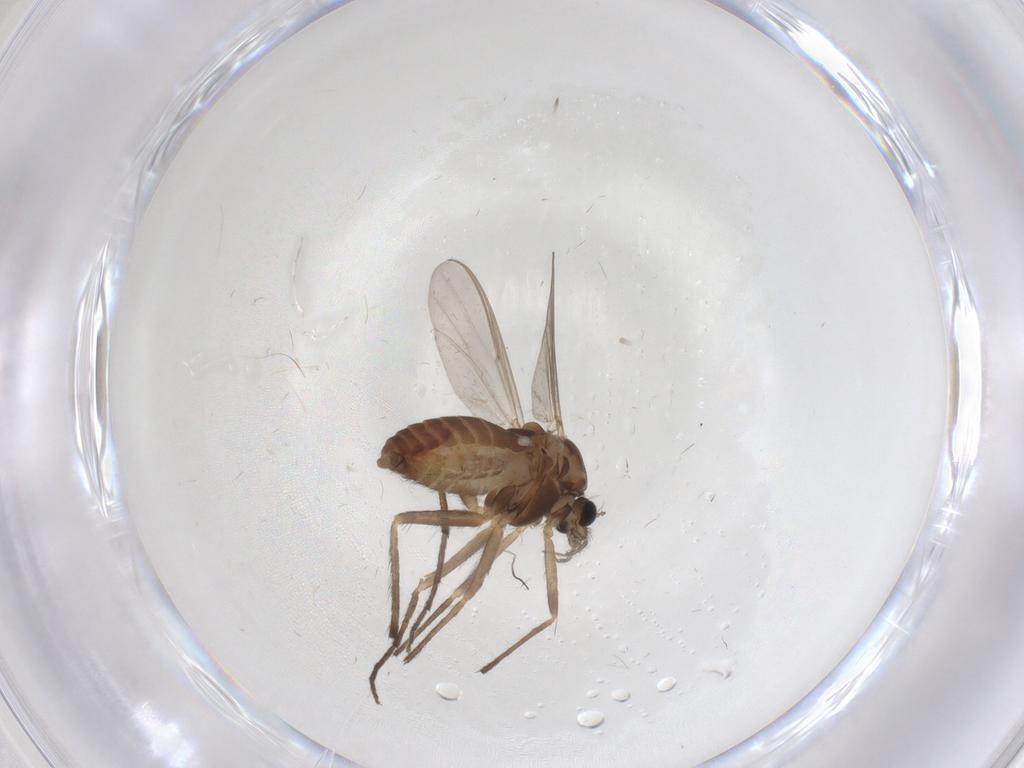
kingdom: Animalia
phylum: Arthropoda
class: Insecta
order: Diptera
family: Chironomidae
